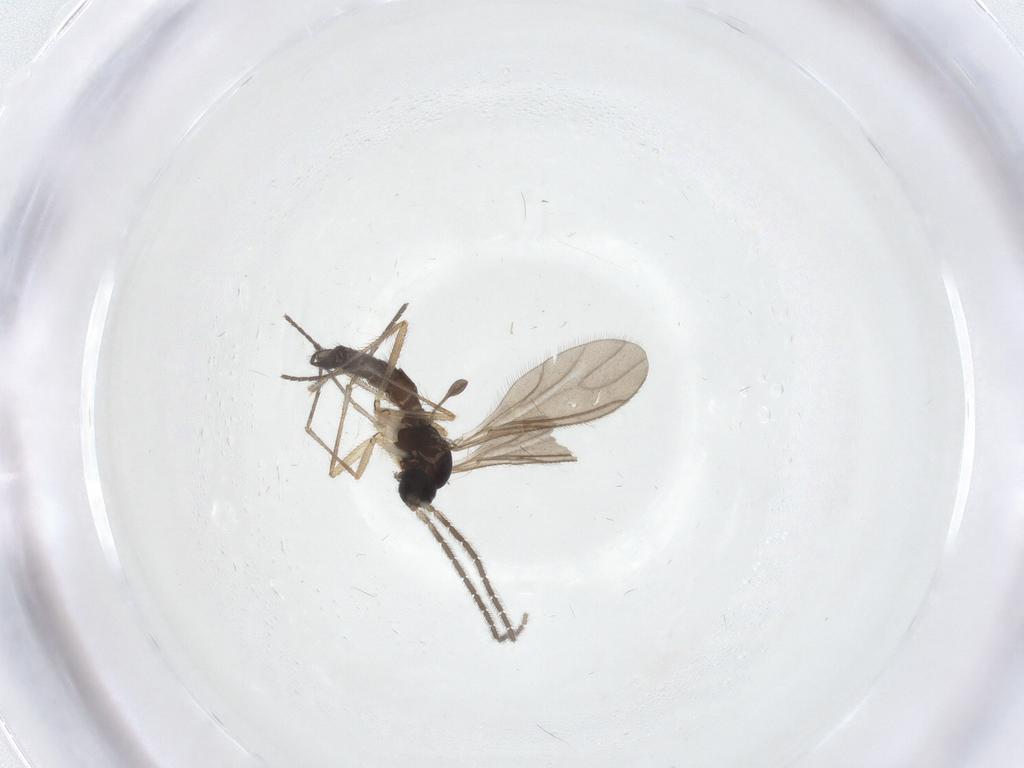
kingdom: Animalia
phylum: Arthropoda
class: Insecta
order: Diptera
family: Sciaridae
